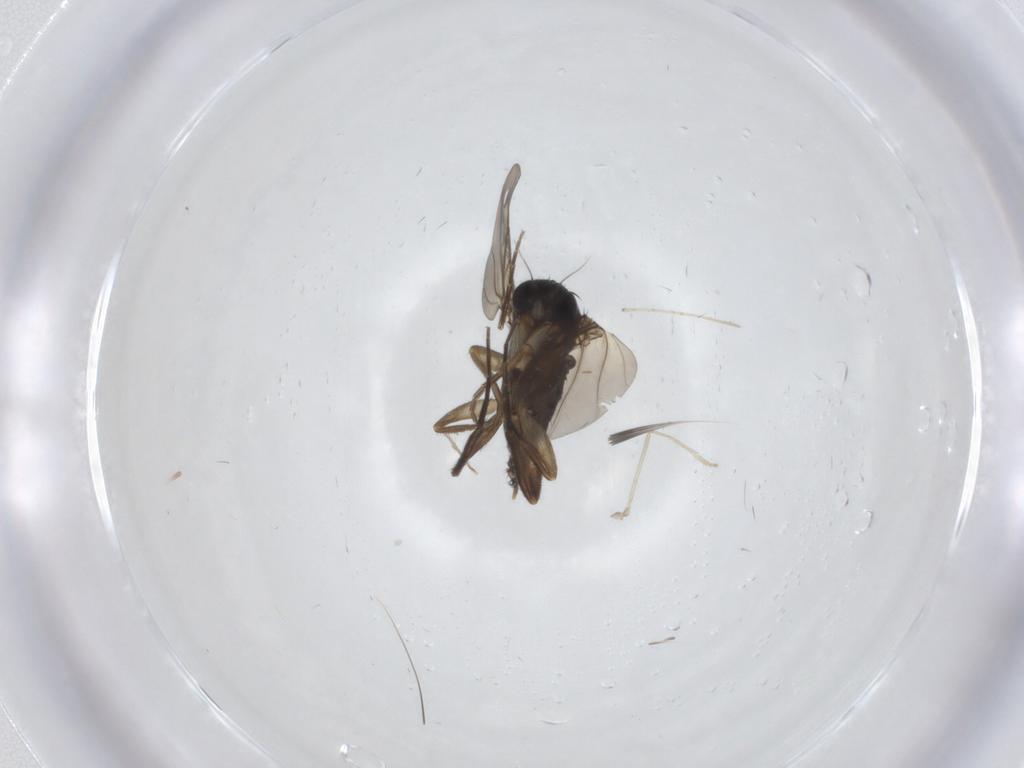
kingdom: Animalia
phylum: Arthropoda
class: Insecta
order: Diptera
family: Chironomidae
